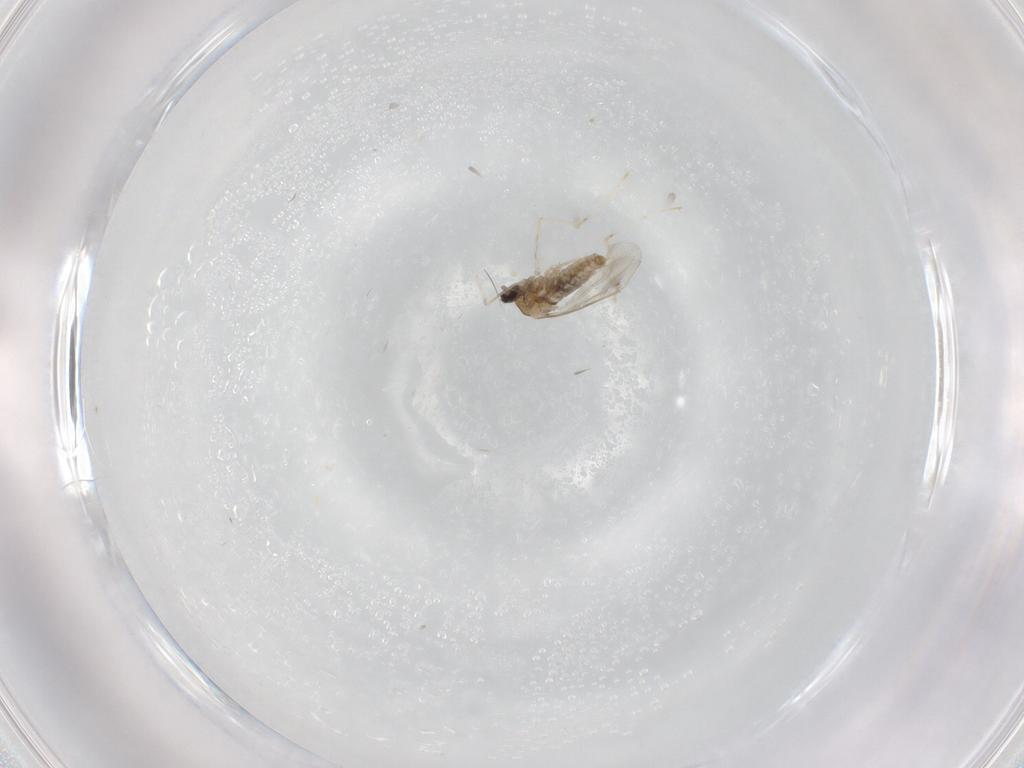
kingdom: Animalia
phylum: Arthropoda
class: Insecta
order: Diptera
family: Cecidomyiidae
